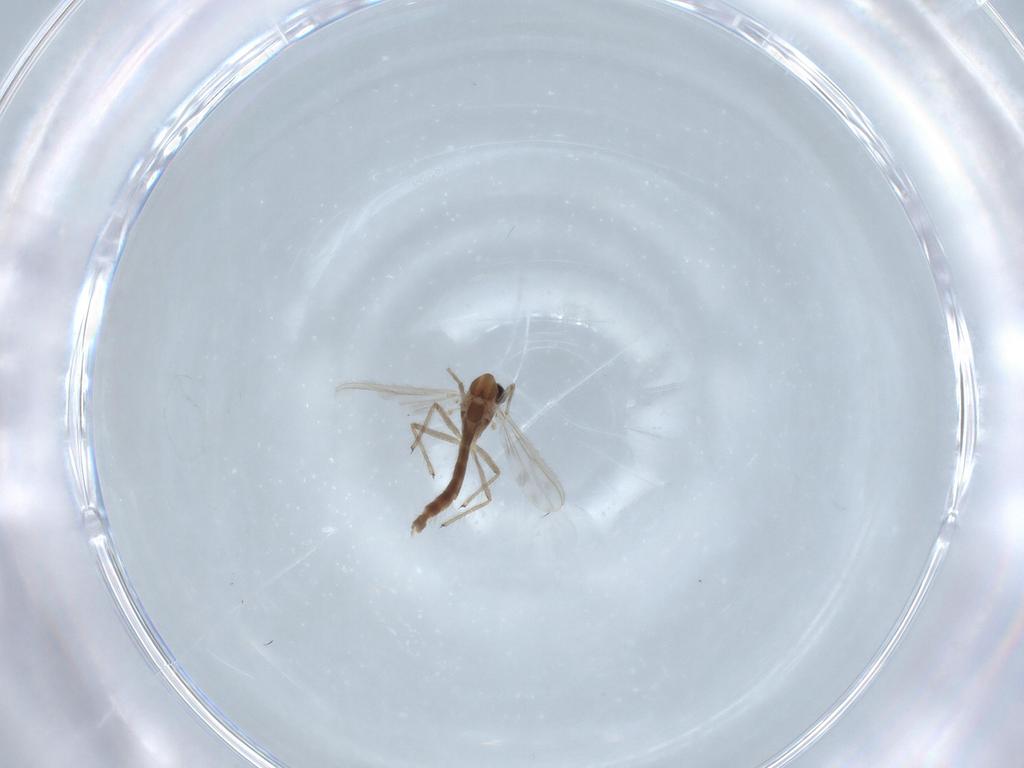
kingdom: Animalia
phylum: Arthropoda
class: Insecta
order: Diptera
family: Chironomidae
